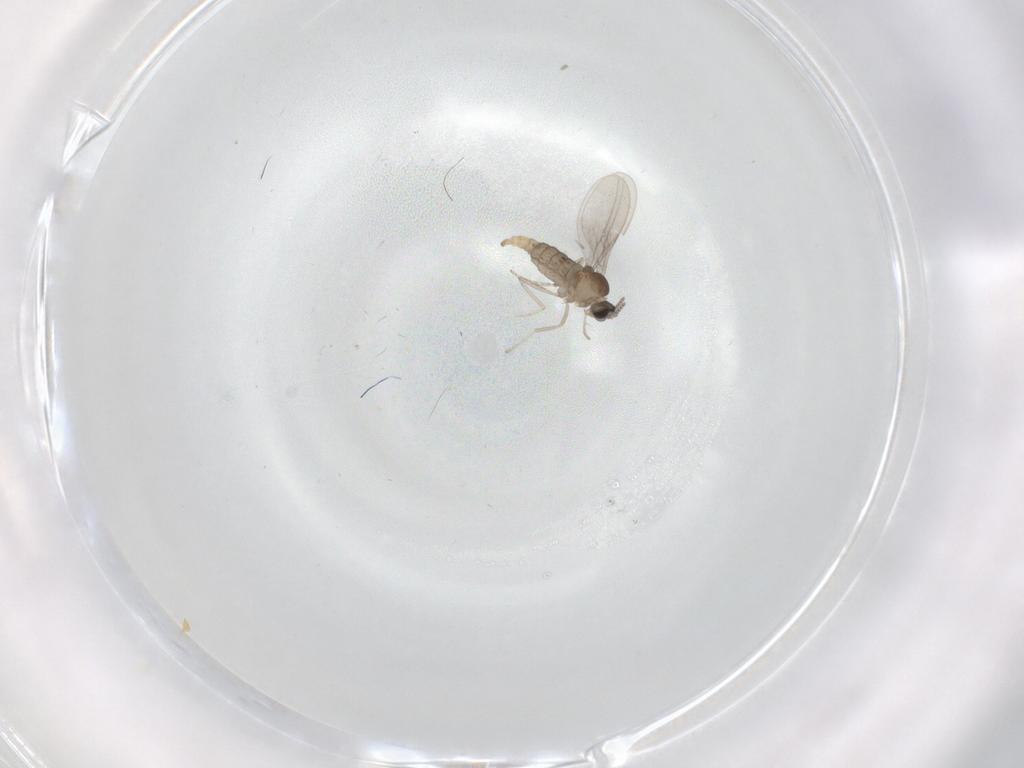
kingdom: Animalia
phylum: Arthropoda
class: Insecta
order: Diptera
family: Cecidomyiidae
